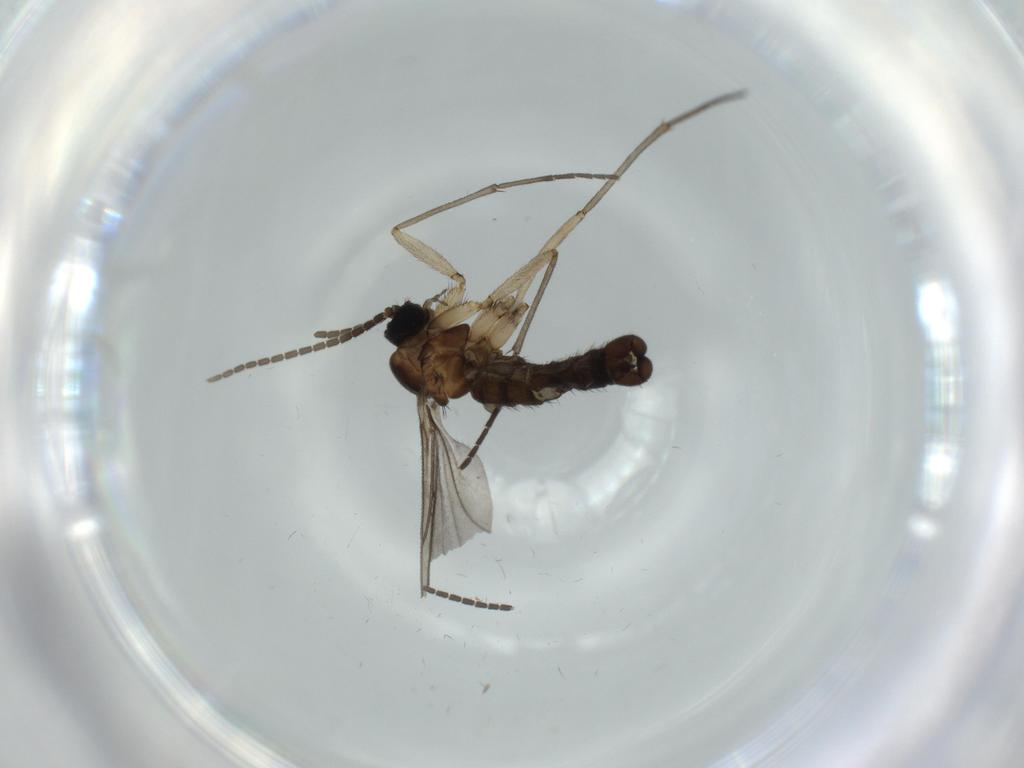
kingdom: Animalia
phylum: Arthropoda
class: Insecta
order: Diptera
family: Sciaridae
